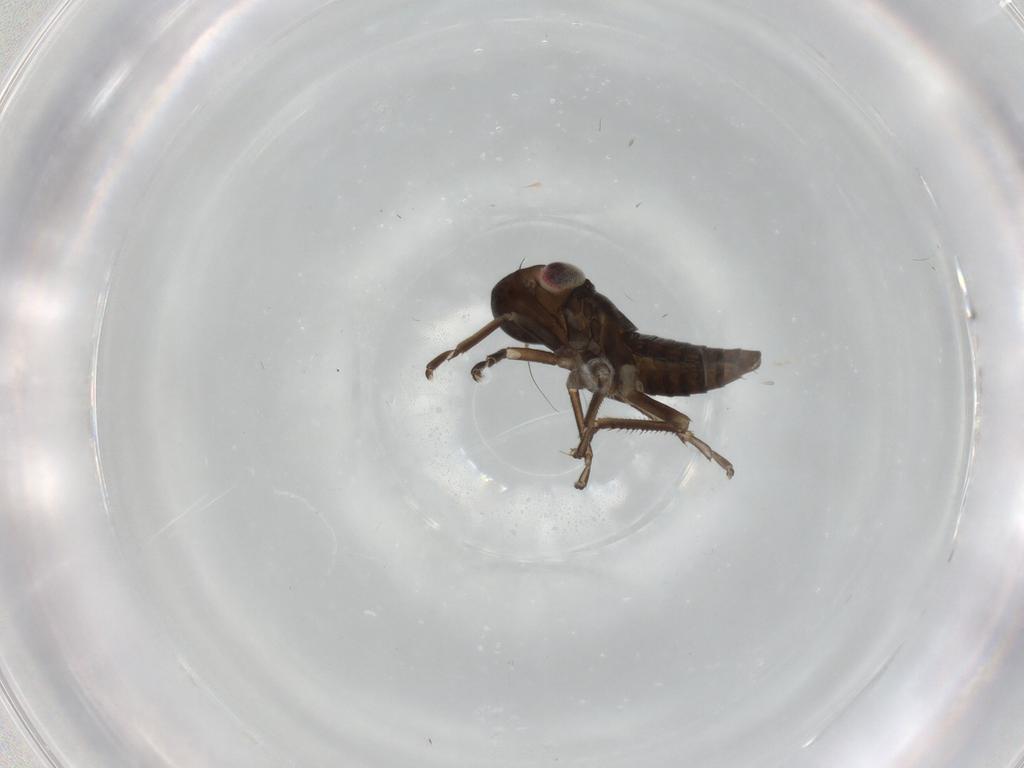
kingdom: Animalia
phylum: Arthropoda
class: Insecta
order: Hemiptera
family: Cicadellidae
